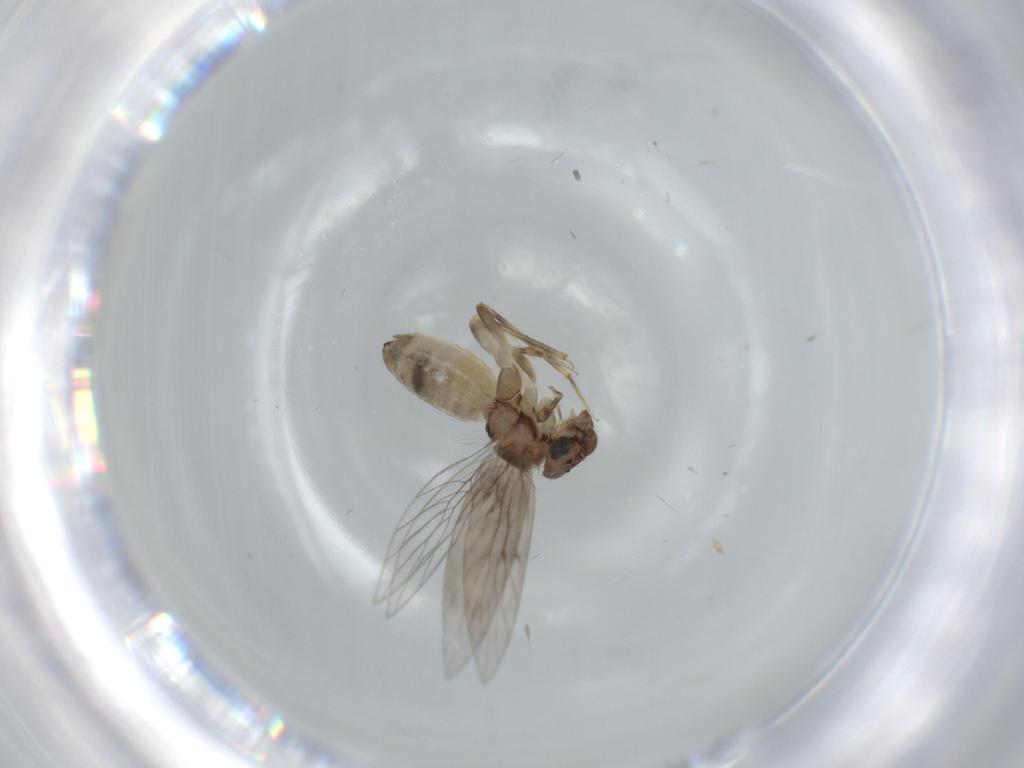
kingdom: Animalia
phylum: Arthropoda
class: Insecta
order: Psocodea
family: Lepidopsocidae
